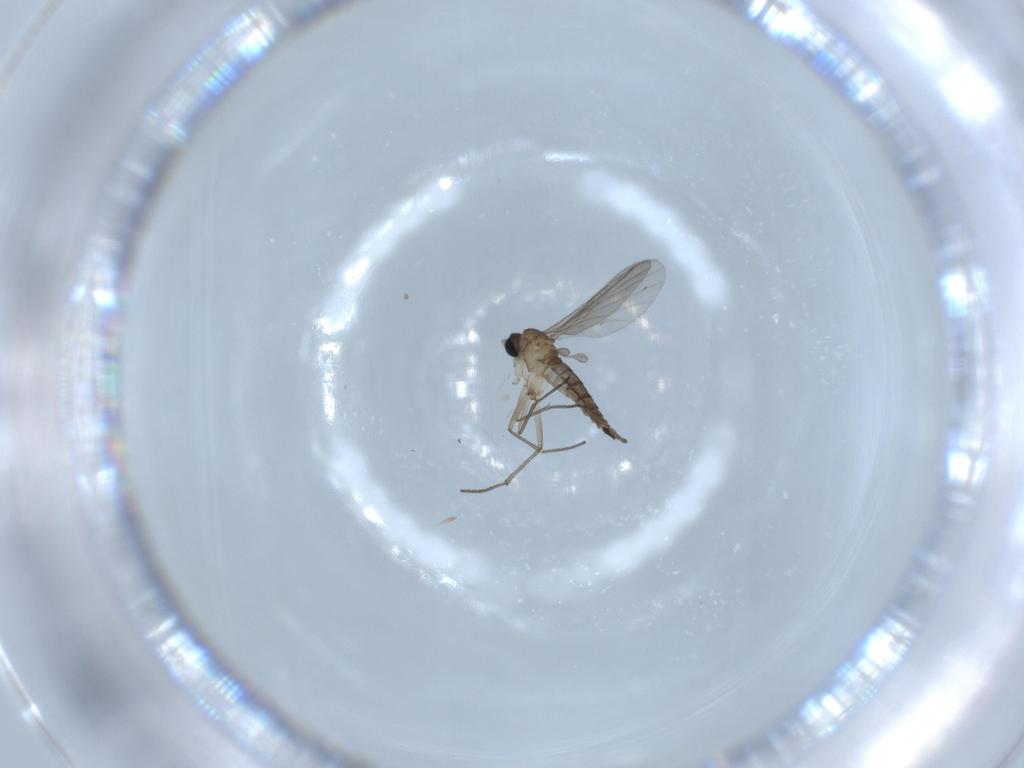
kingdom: Animalia
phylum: Arthropoda
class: Insecta
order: Diptera
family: Sciaridae
